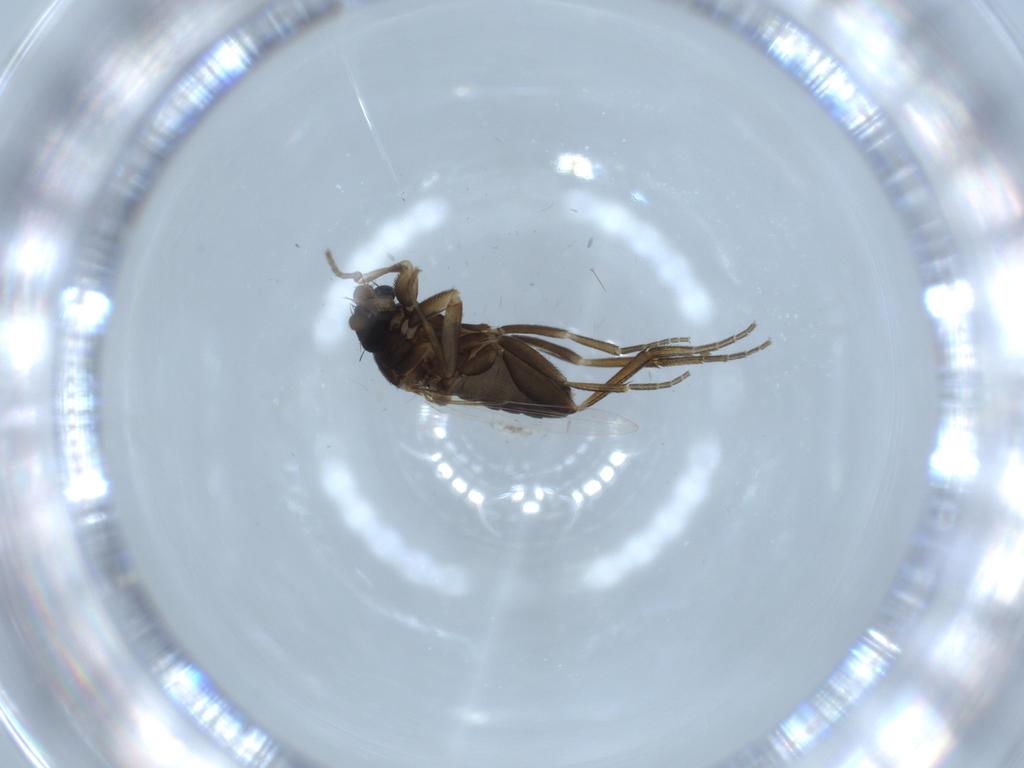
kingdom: Animalia
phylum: Arthropoda
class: Insecta
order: Diptera
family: Phoridae
